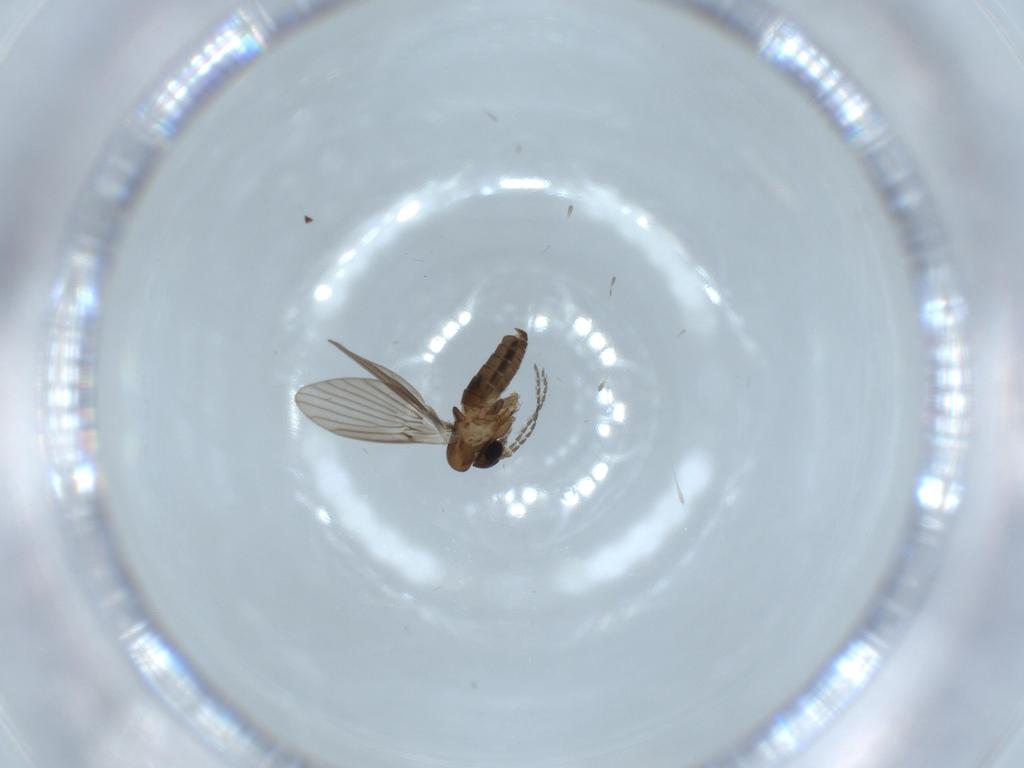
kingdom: Animalia
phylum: Arthropoda
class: Insecta
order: Diptera
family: Psychodidae
